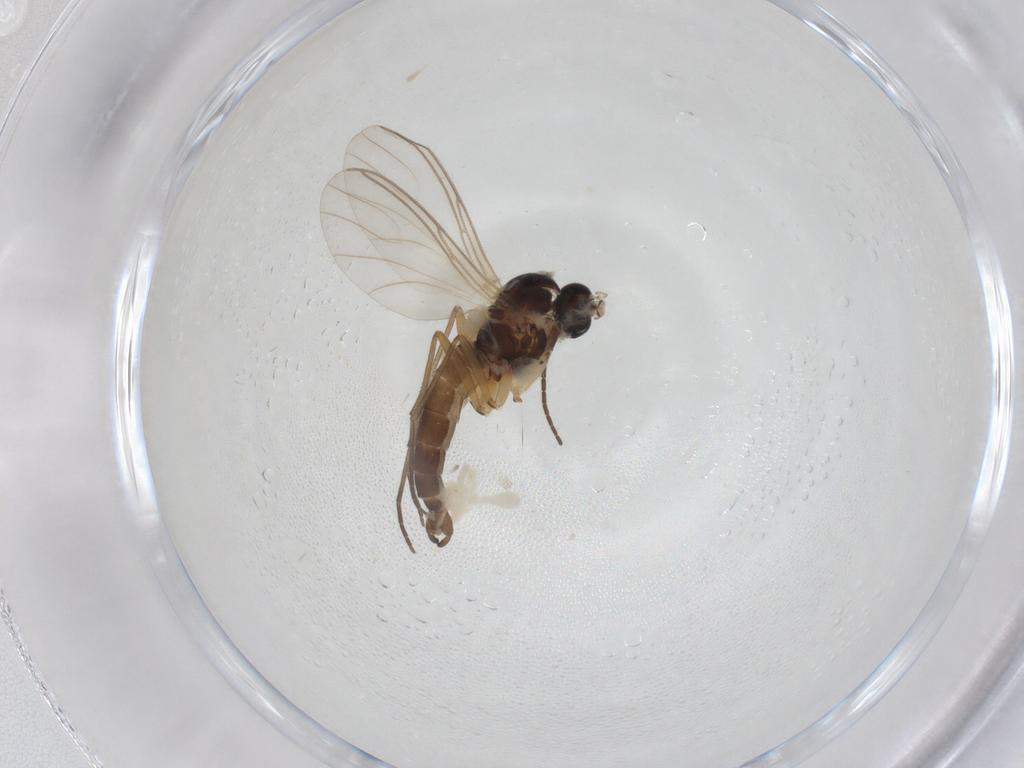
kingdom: Animalia
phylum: Arthropoda
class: Insecta
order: Diptera
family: Sciaridae
